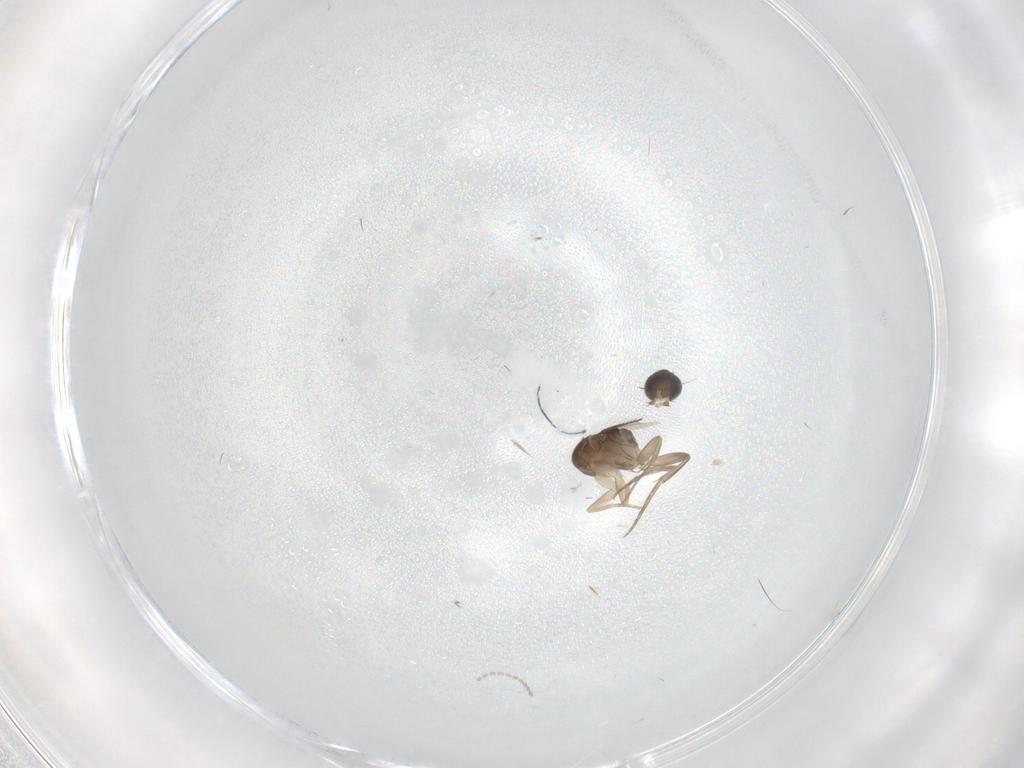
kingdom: Animalia
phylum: Arthropoda
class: Insecta
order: Diptera
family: Phoridae
